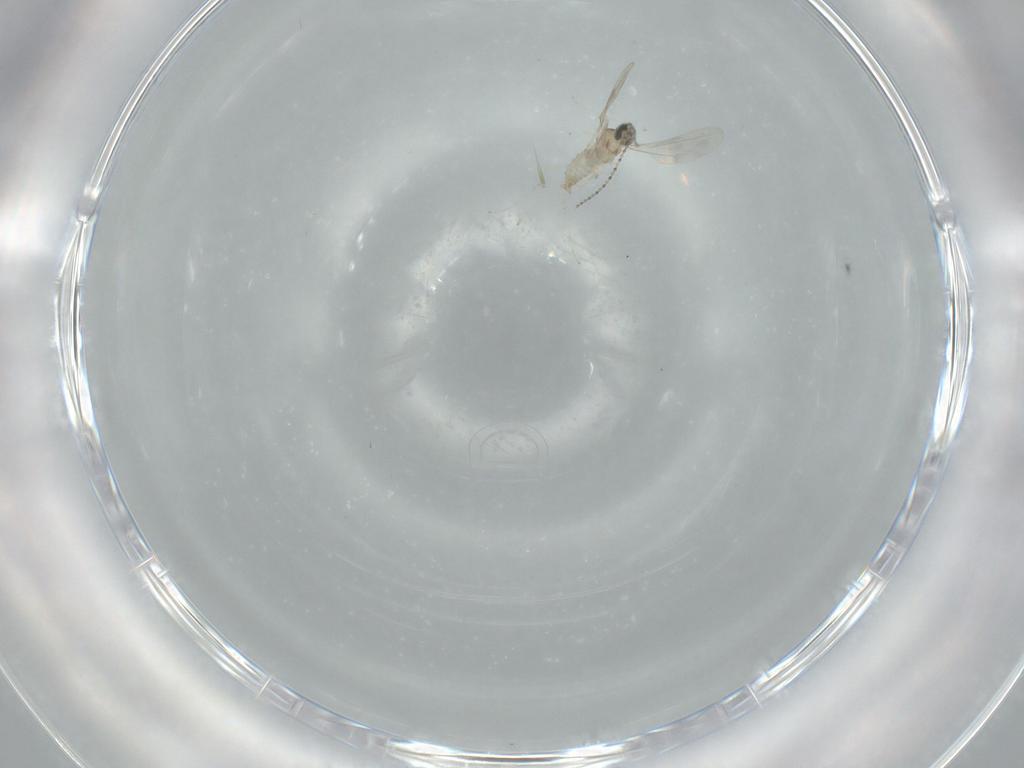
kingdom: Animalia
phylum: Arthropoda
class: Insecta
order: Diptera
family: Cecidomyiidae
